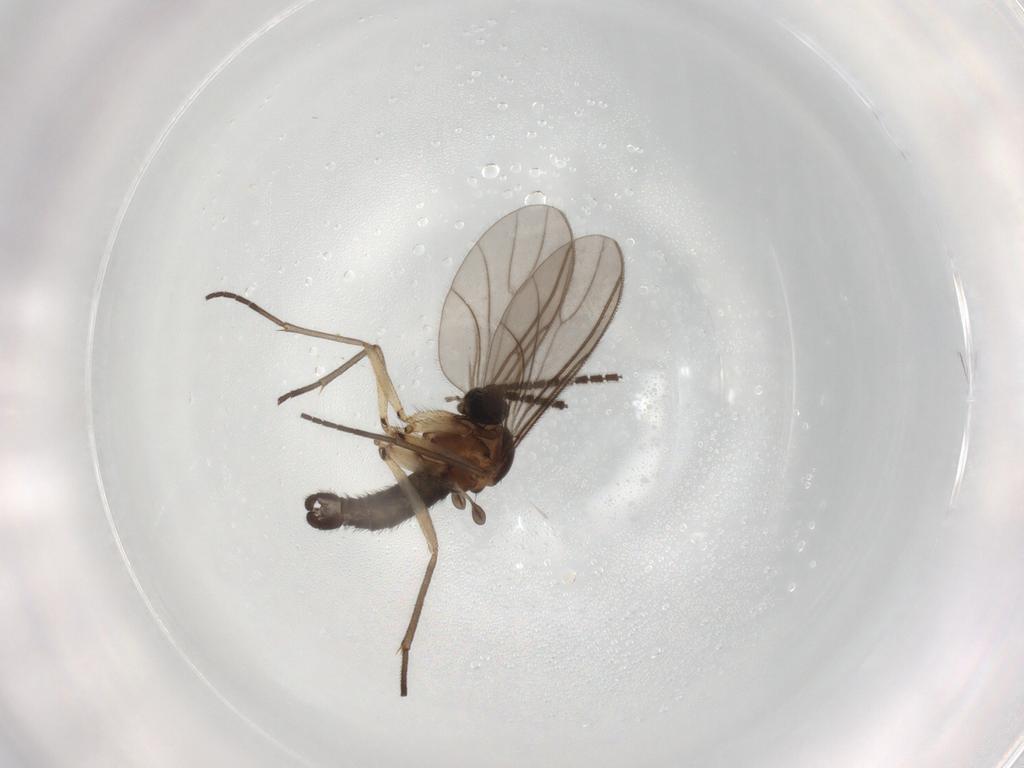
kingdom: Animalia
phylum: Arthropoda
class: Insecta
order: Diptera
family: Sciaridae
